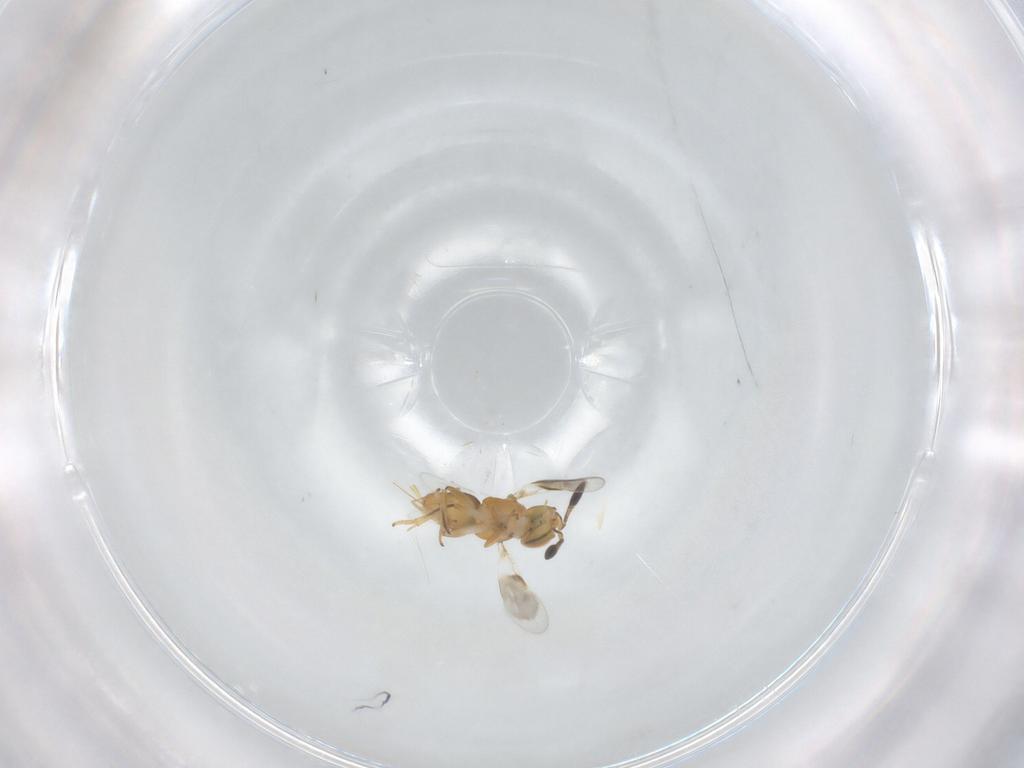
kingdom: Animalia
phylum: Arthropoda
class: Insecta
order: Hymenoptera
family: Encyrtidae
